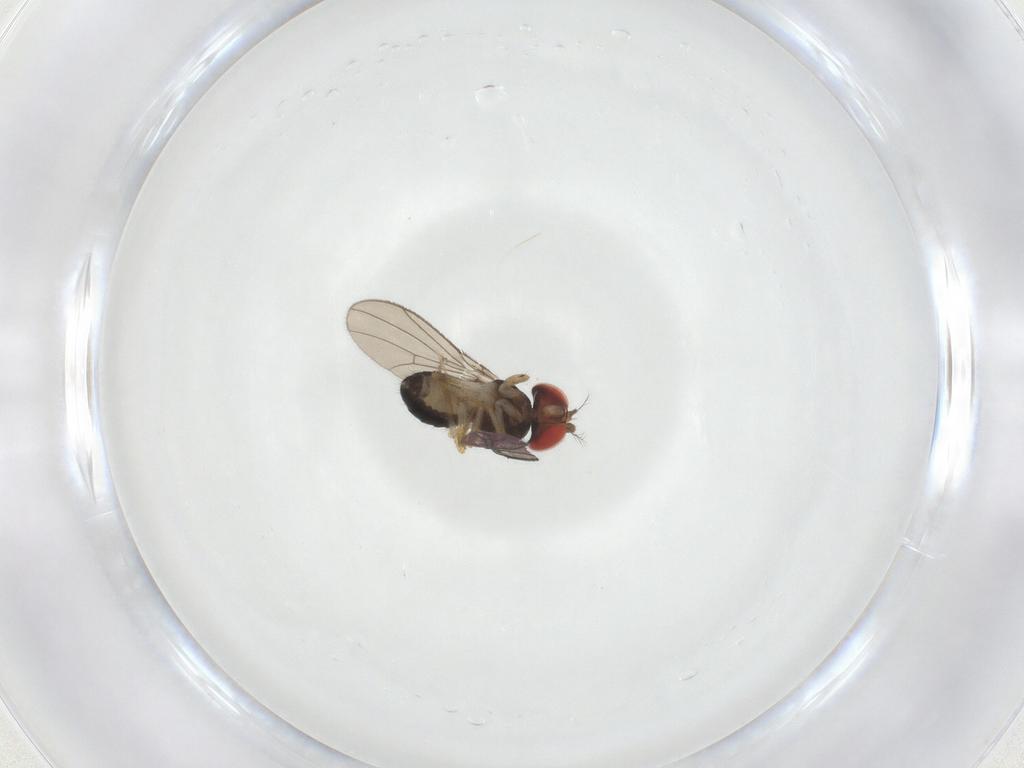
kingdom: Animalia
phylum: Arthropoda
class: Insecta
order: Diptera
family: Drosophilidae
